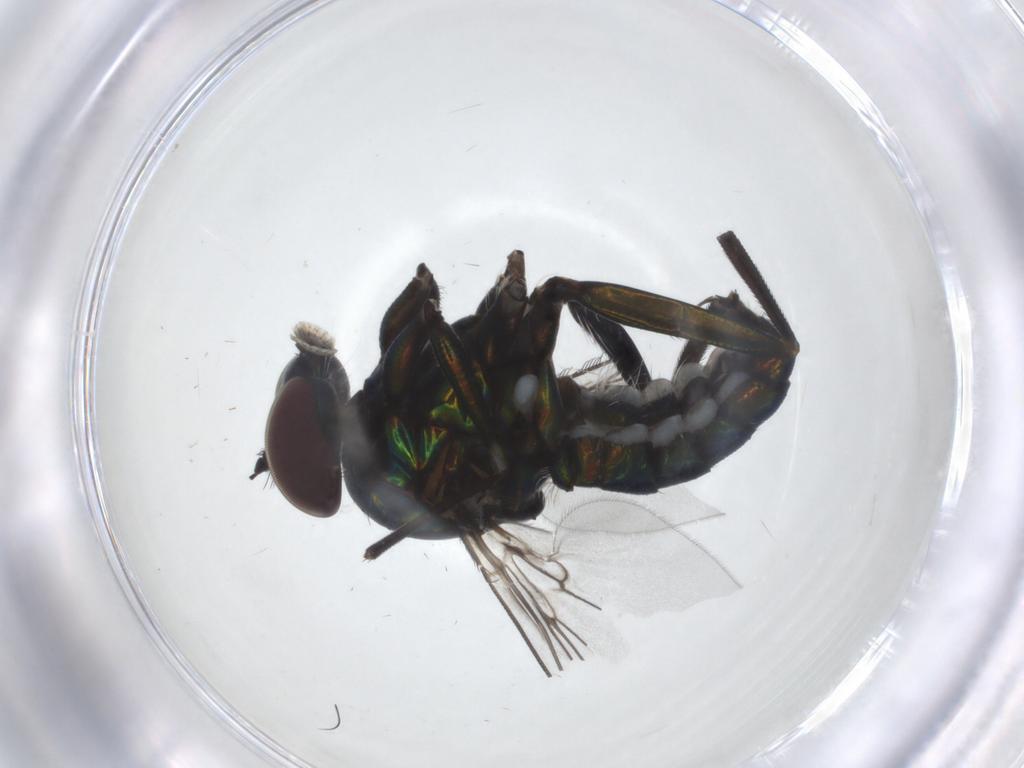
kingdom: Animalia
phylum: Arthropoda
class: Insecta
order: Diptera
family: Dolichopodidae
